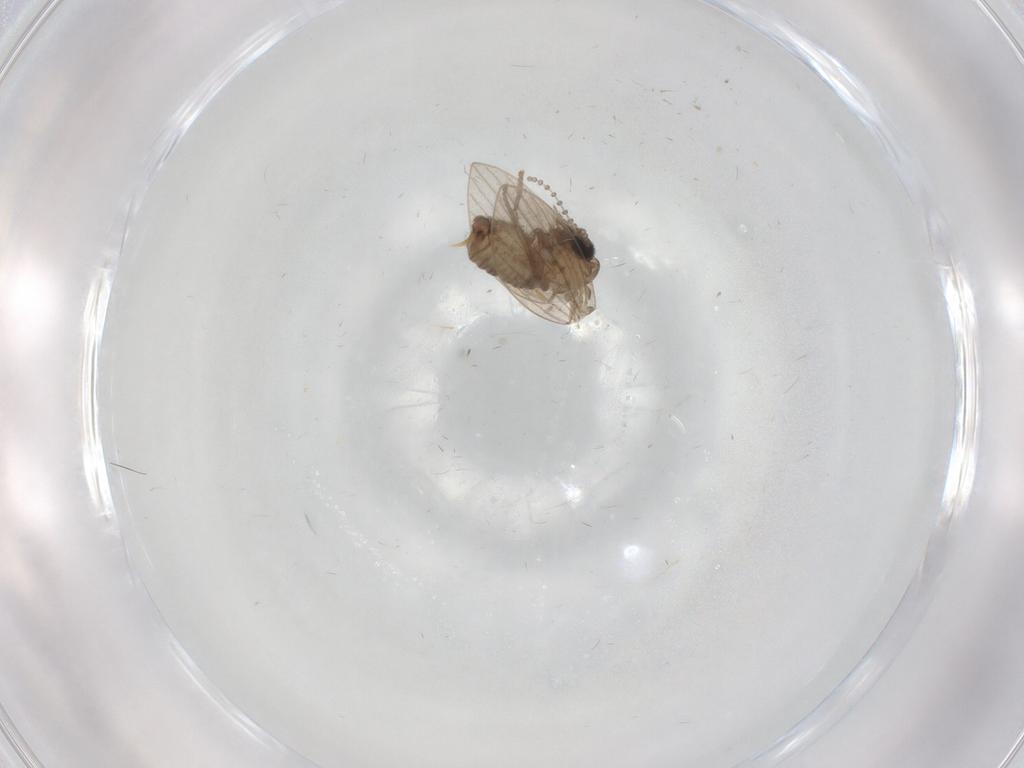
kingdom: Animalia
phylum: Arthropoda
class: Insecta
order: Diptera
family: Psychodidae
